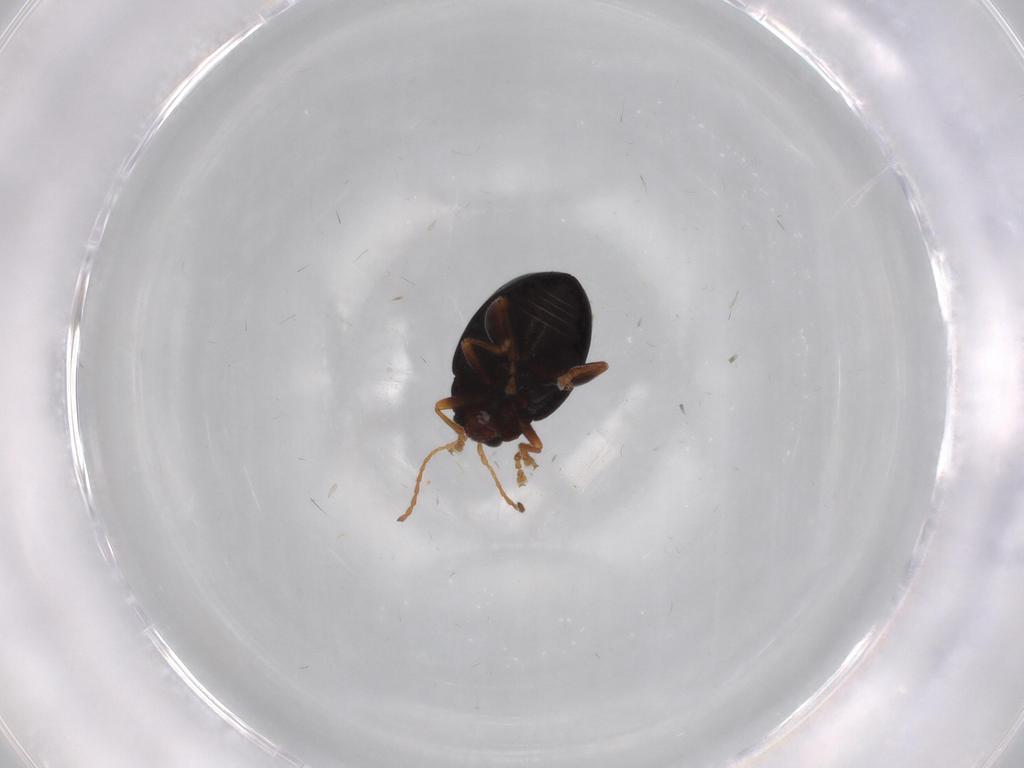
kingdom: Animalia
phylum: Arthropoda
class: Insecta
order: Coleoptera
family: Chrysomelidae
